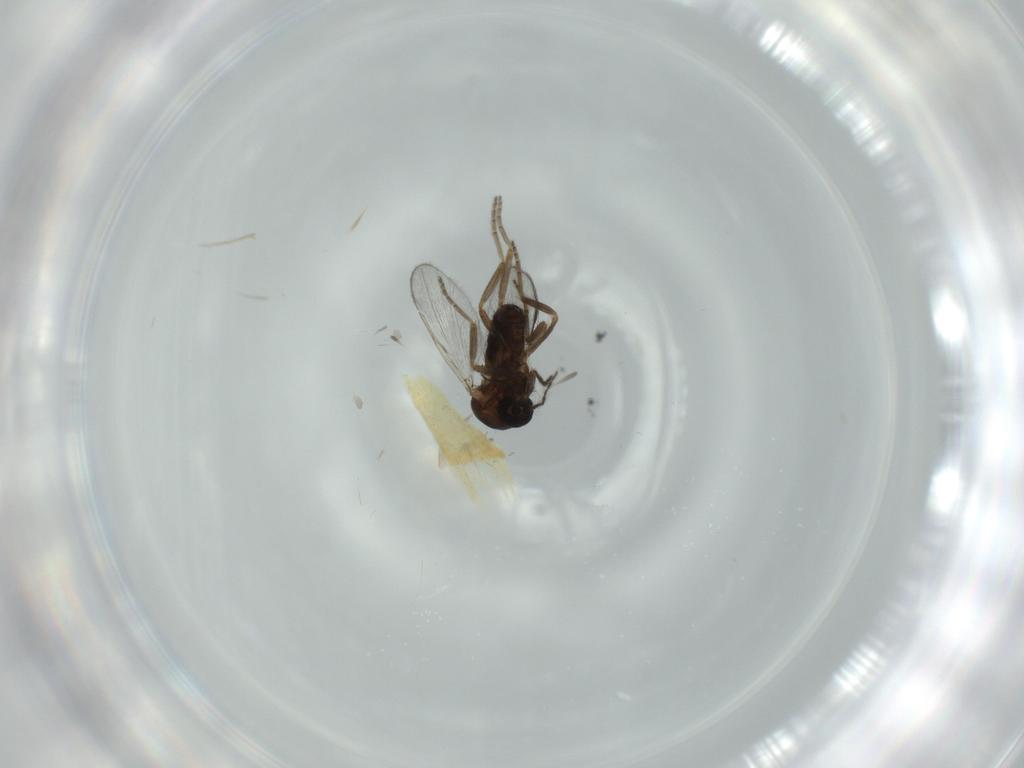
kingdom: Animalia
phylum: Arthropoda
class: Insecta
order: Diptera
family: Ceratopogonidae
